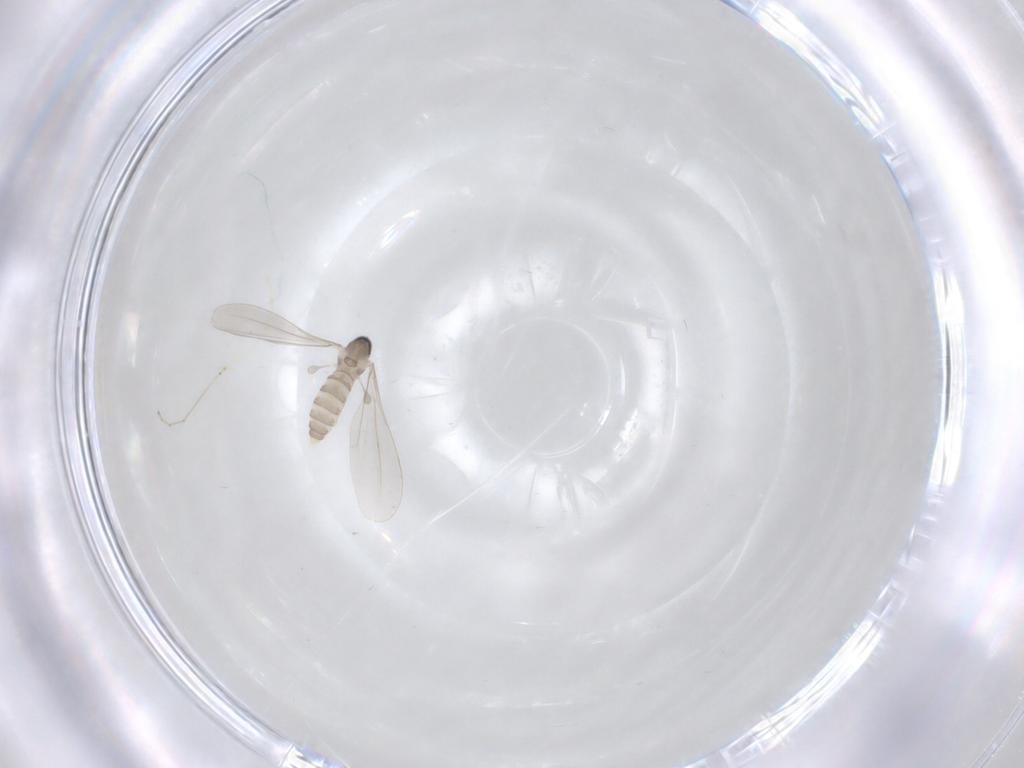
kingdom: Animalia
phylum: Arthropoda
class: Insecta
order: Diptera
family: Cecidomyiidae
